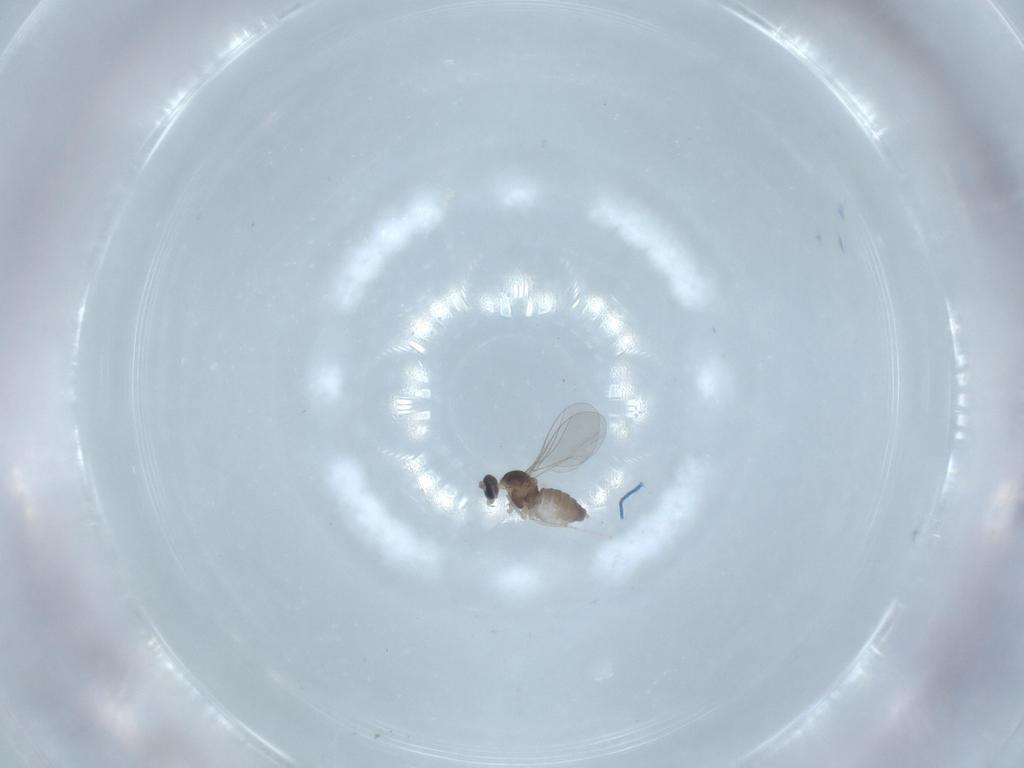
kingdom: Animalia
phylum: Arthropoda
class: Insecta
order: Diptera
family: Cecidomyiidae
